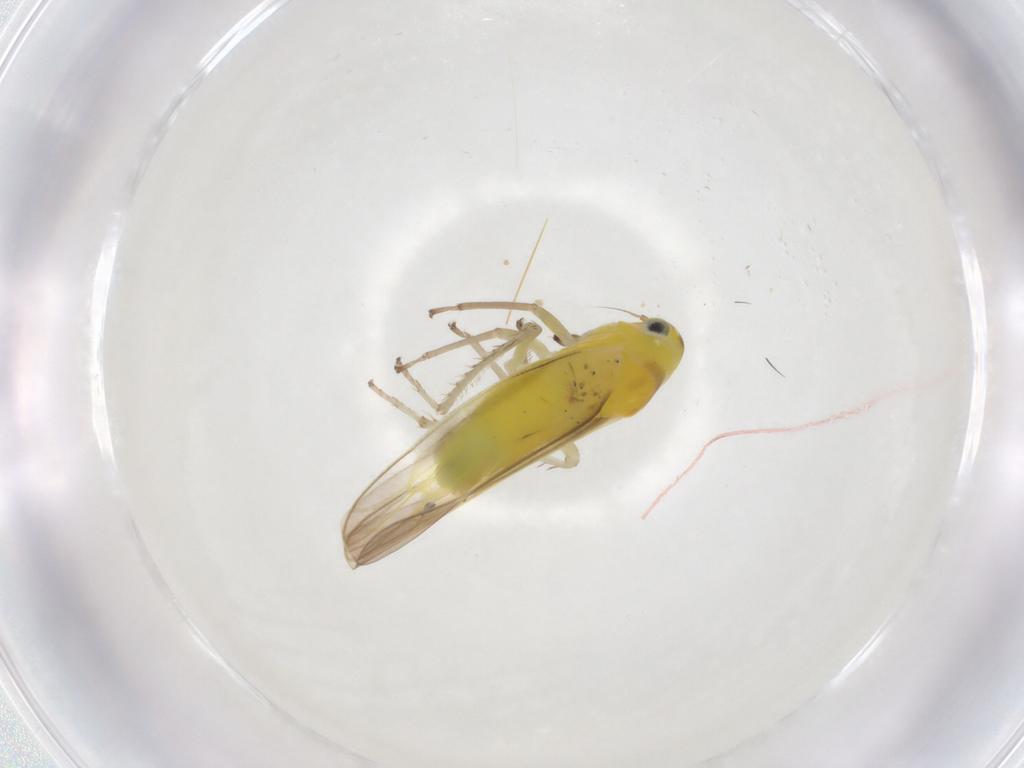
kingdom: Animalia
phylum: Arthropoda
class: Insecta
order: Hemiptera
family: Cicadellidae
